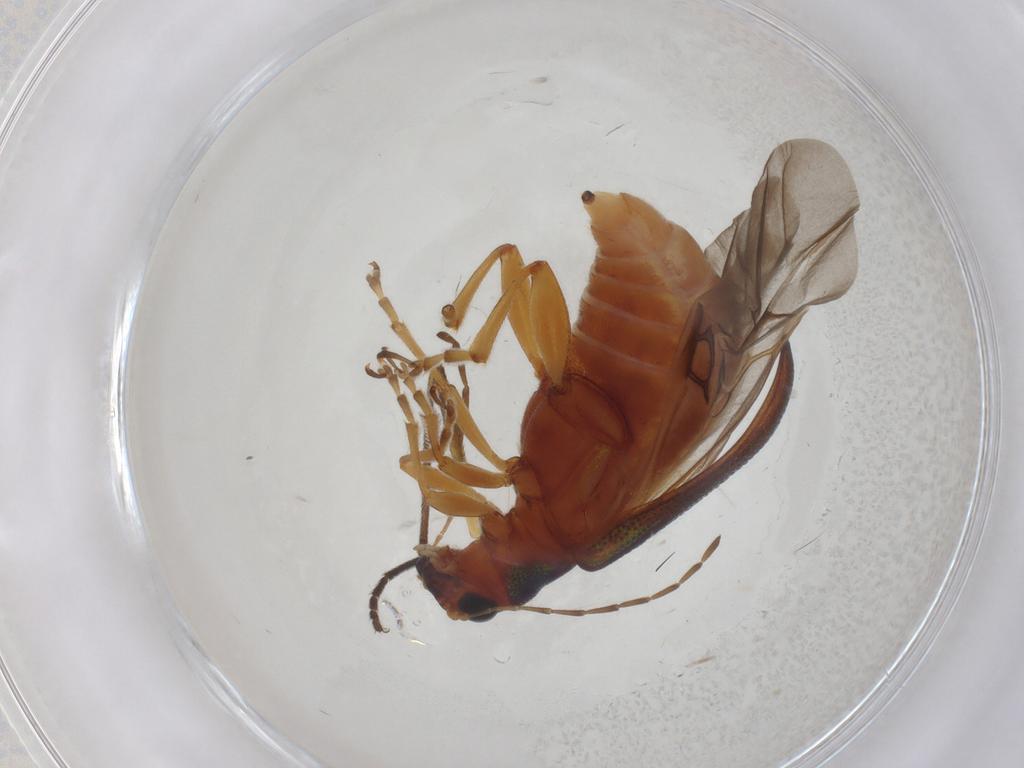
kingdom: Animalia
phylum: Arthropoda
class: Insecta
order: Coleoptera
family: Chrysomelidae
